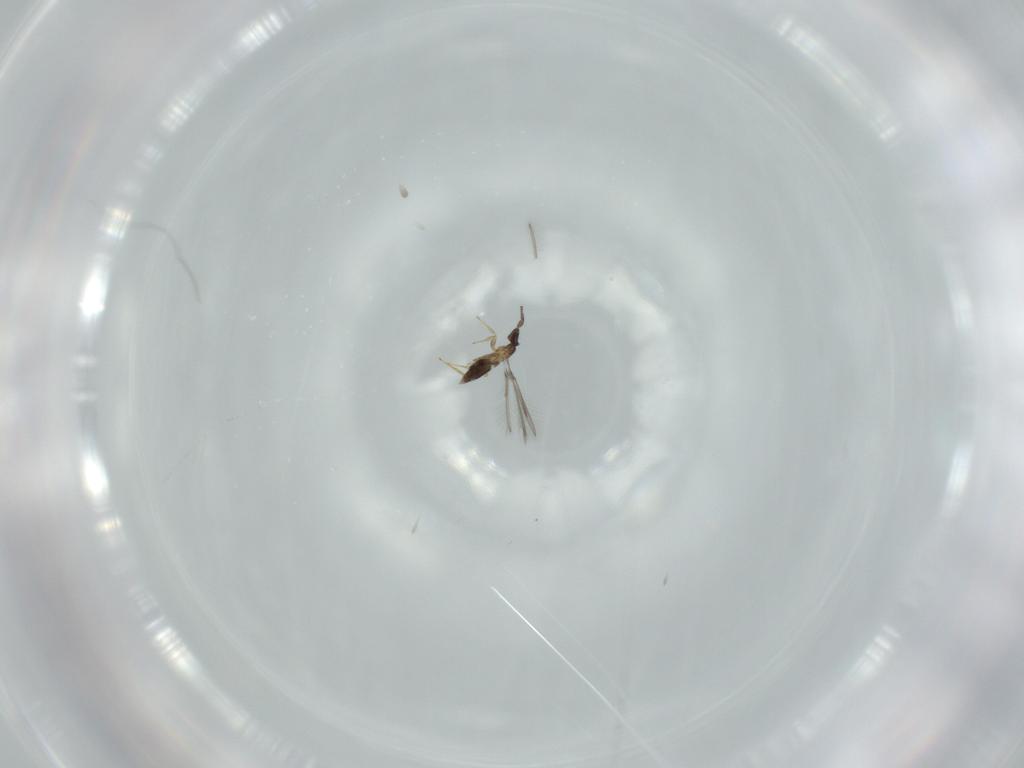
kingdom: Animalia
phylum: Arthropoda
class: Insecta
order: Hymenoptera
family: Mymaridae
